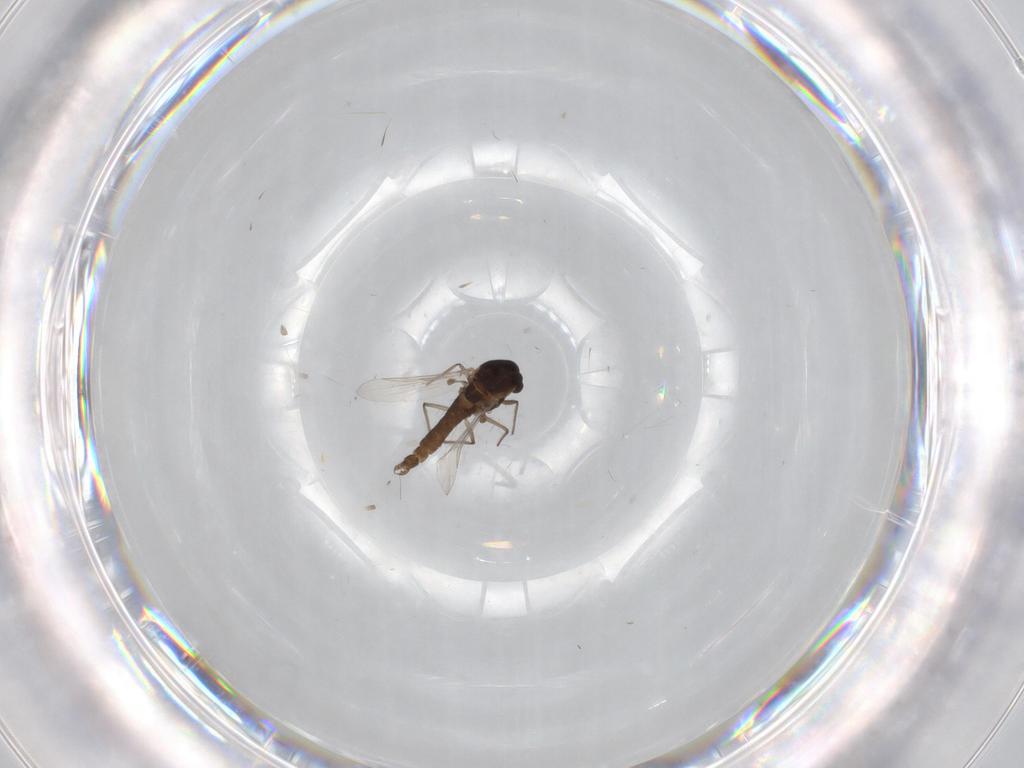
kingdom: Animalia
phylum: Arthropoda
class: Insecta
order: Diptera
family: Chironomidae
